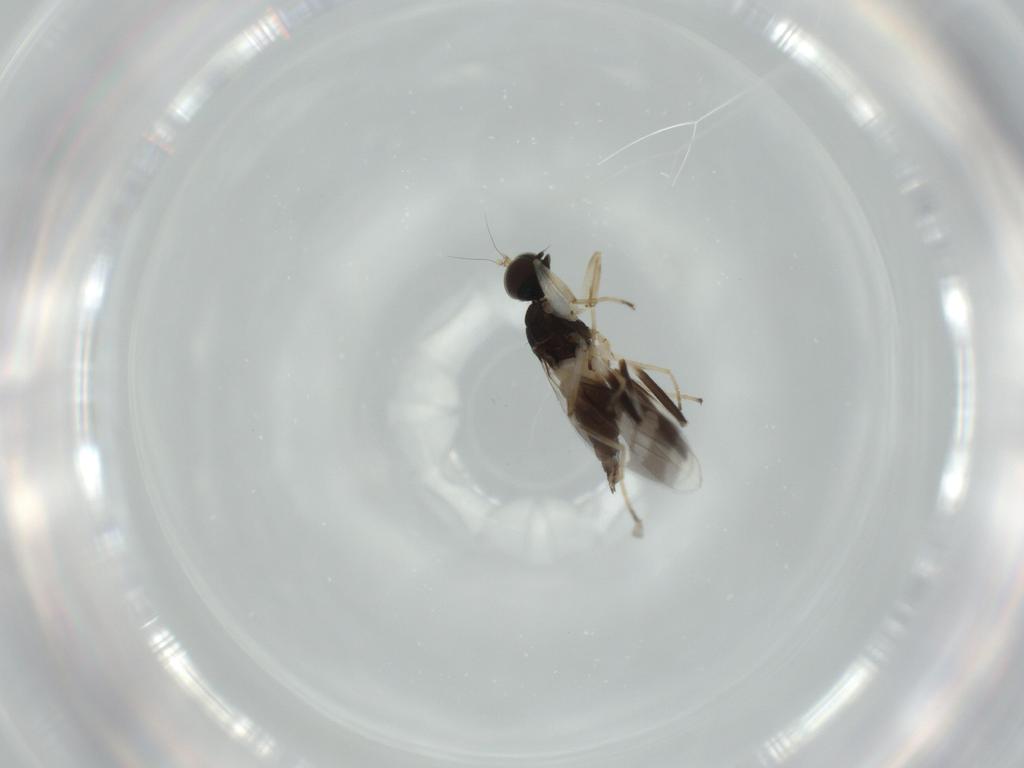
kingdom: Animalia
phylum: Arthropoda
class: Insecta
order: Diptera
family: Hybotidae
